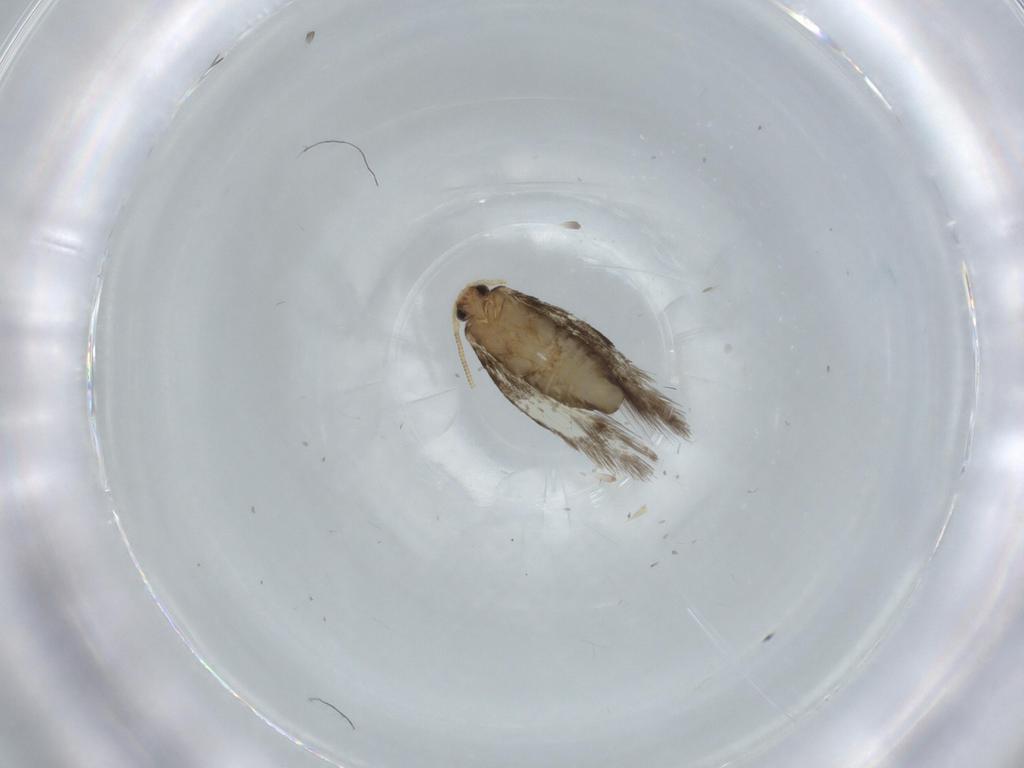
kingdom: Animalia
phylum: Arthropoda
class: Insecta
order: Lepidoptera
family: Nepticulidae
